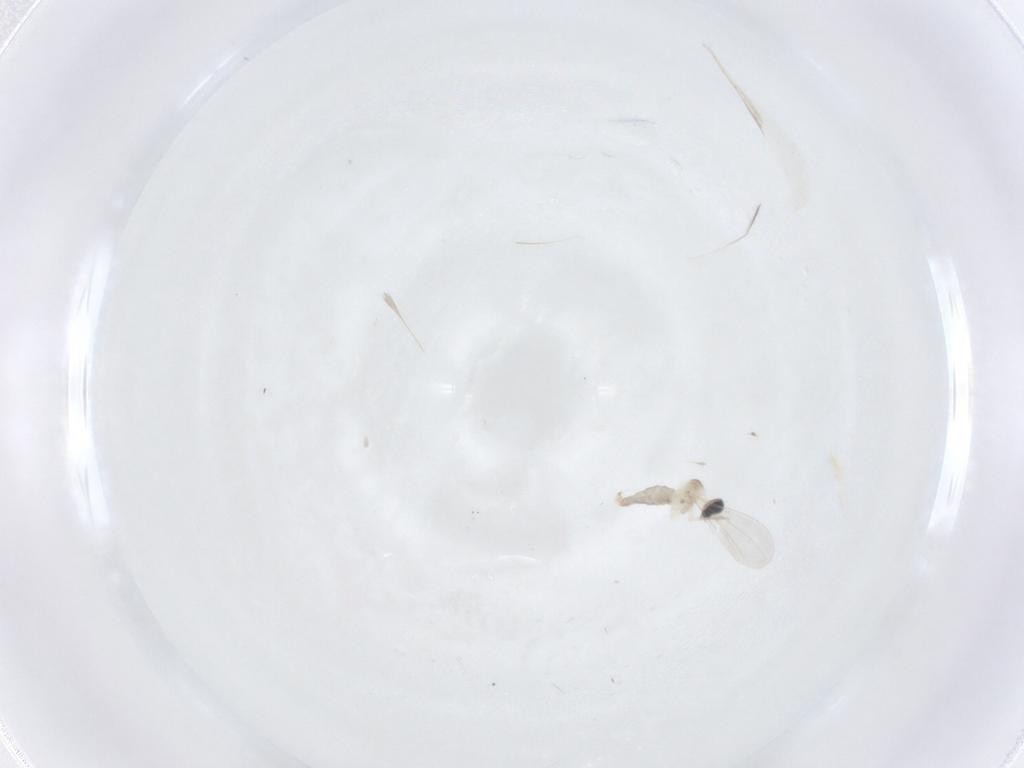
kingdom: Animalia
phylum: Arthropoda
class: Insecta
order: Diptera
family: Cecidomyiidae
